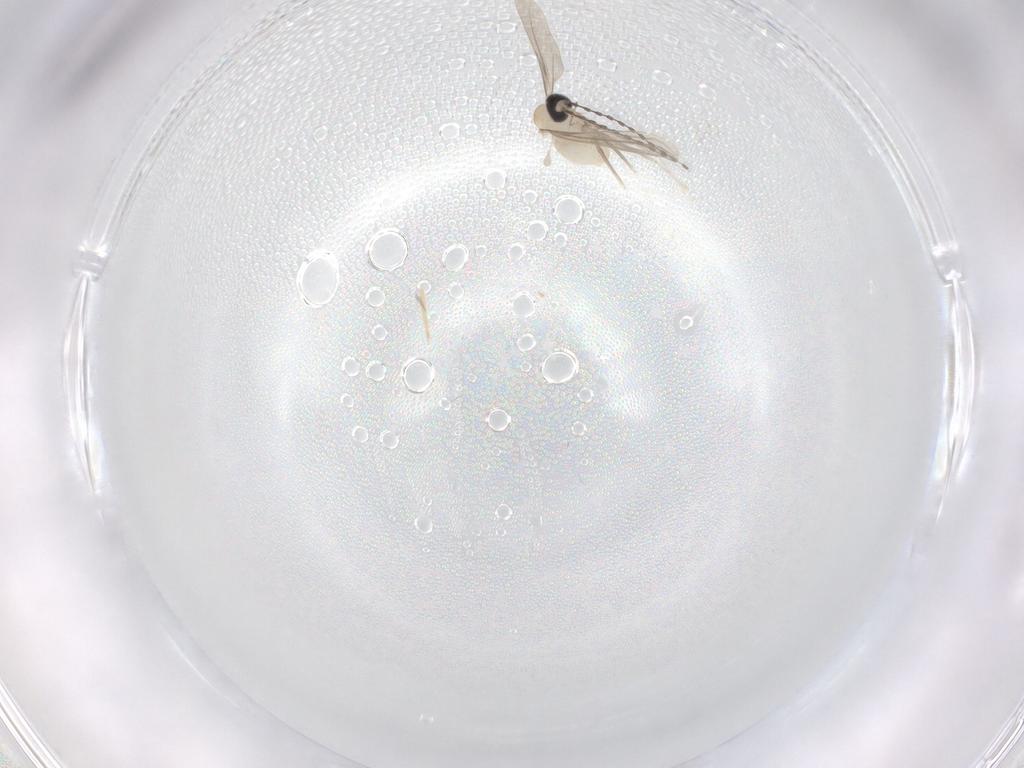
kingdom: Animalia
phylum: Arthropoda
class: Insecta
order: Diptera
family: Cecidomyiidae
